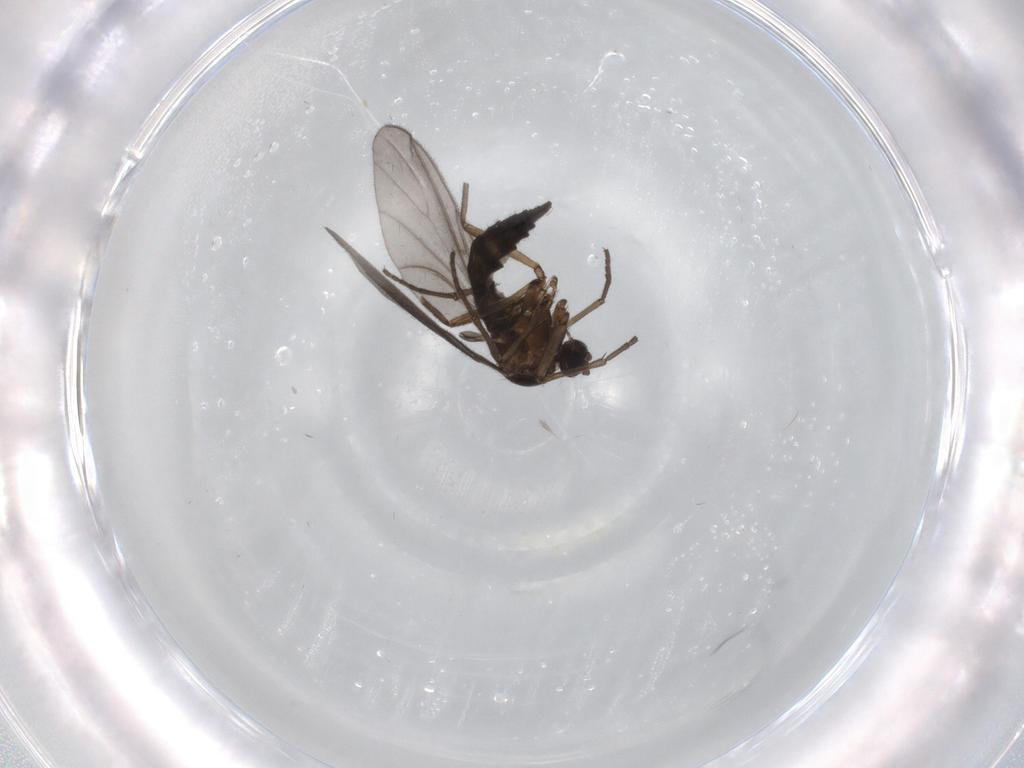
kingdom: Animalia
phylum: Arthropoda
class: Insecta
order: Diptera
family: Sciaridae
